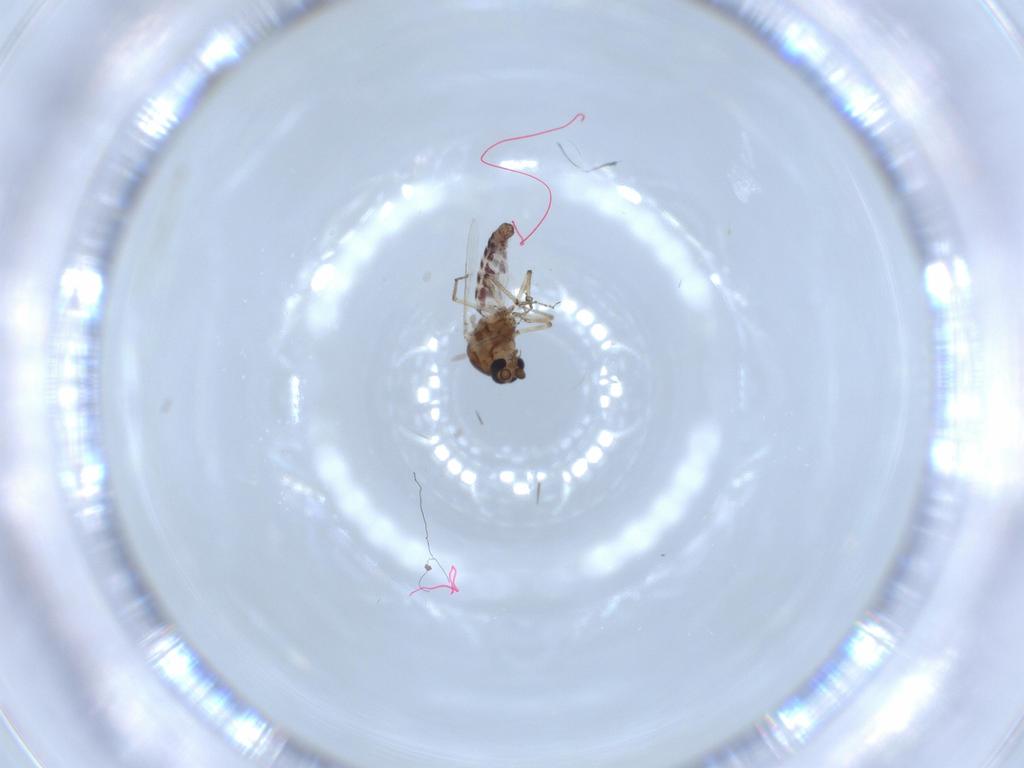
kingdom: Animalia
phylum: Arthropoda
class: Insecta
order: Diptera
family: Ceratopogonidae
